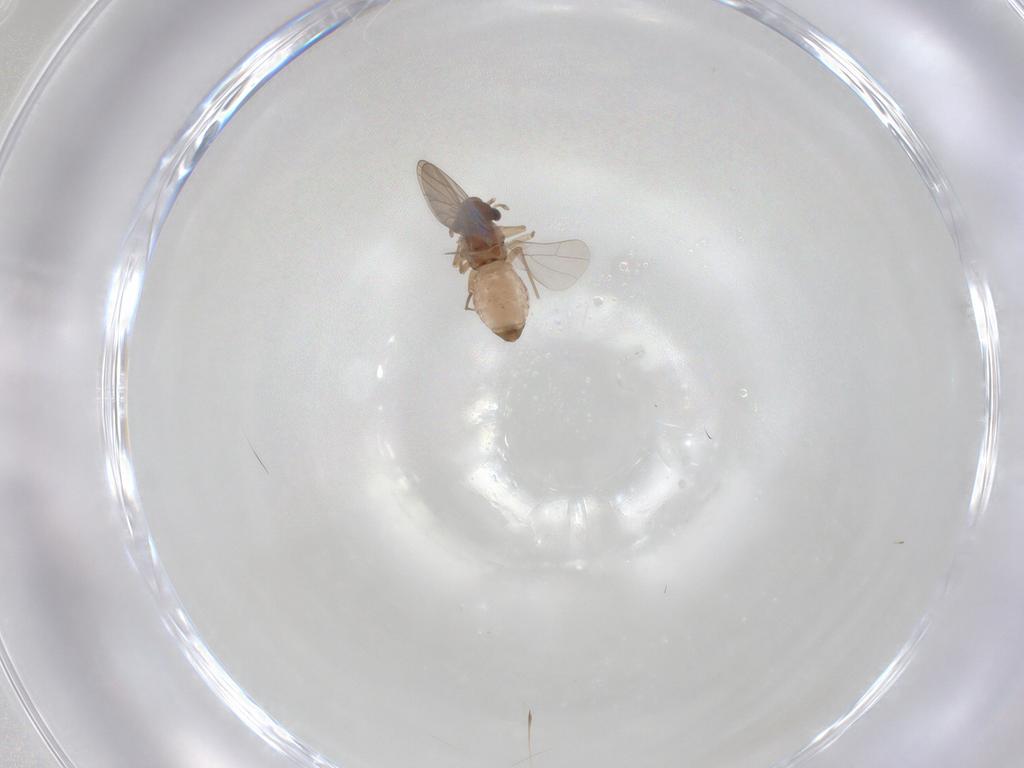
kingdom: Animalia
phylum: Arthropoda
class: Insecta
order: Psocodea
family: Lepidopsocidae
